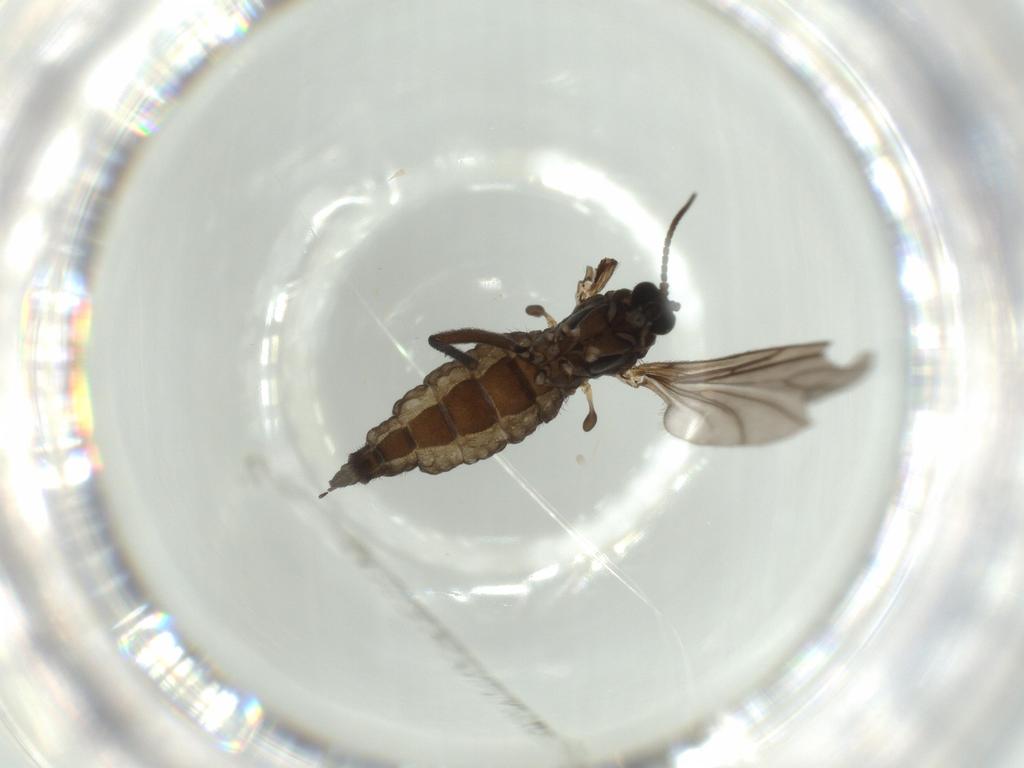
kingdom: Animalia
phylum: Arthropoda
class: Insecta
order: Diptera
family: Sciaridae
